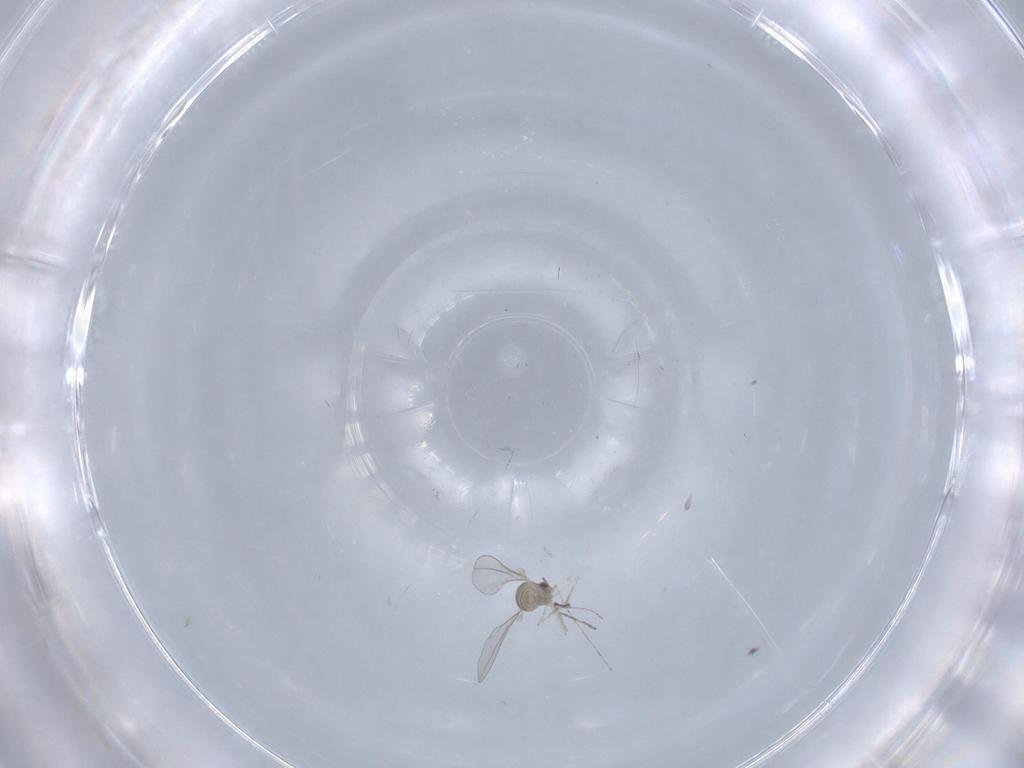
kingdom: Animalia
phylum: Arthropoda
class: Insecta
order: Diptera
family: Cecidomyiidae
